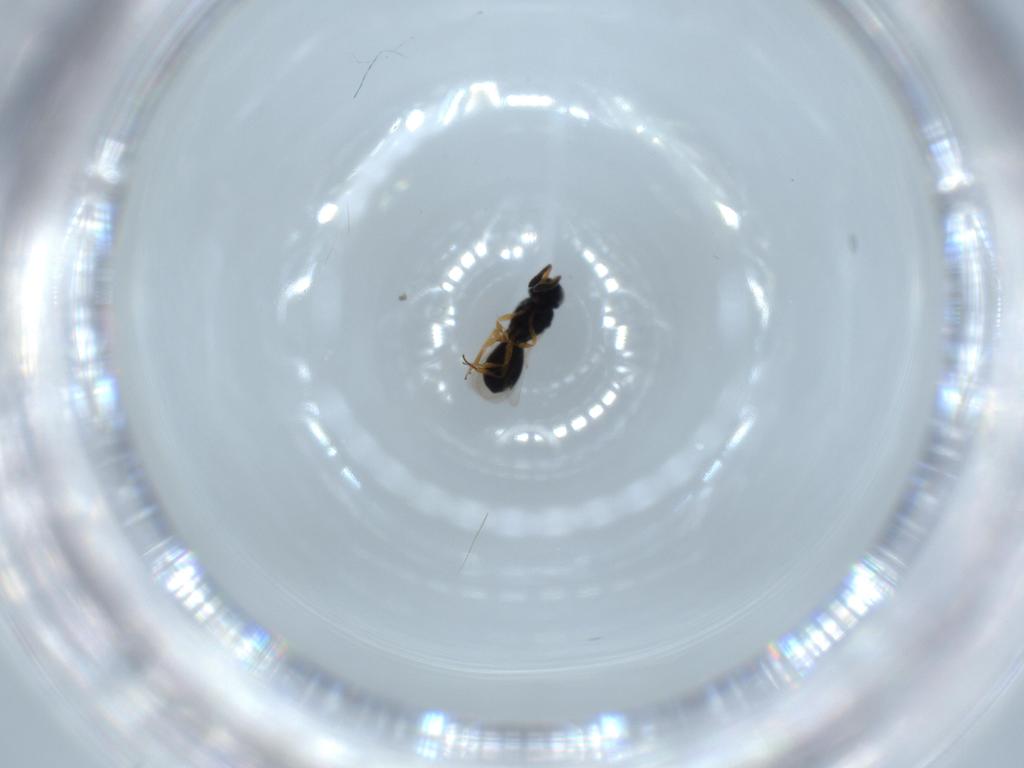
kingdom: Animalia
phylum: Arthropoda
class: Insecta
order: Hymenoptera
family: Scelionidae
